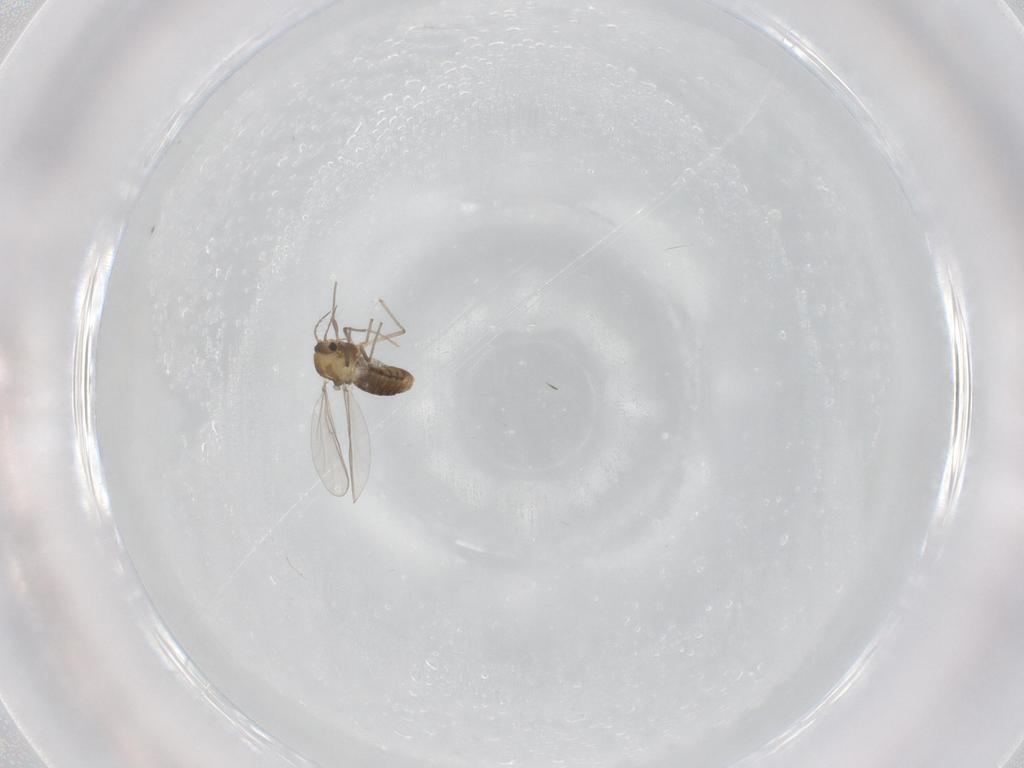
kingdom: Animalia
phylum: Arthropoda
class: Insecta
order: Diptera
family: Chironomidae
